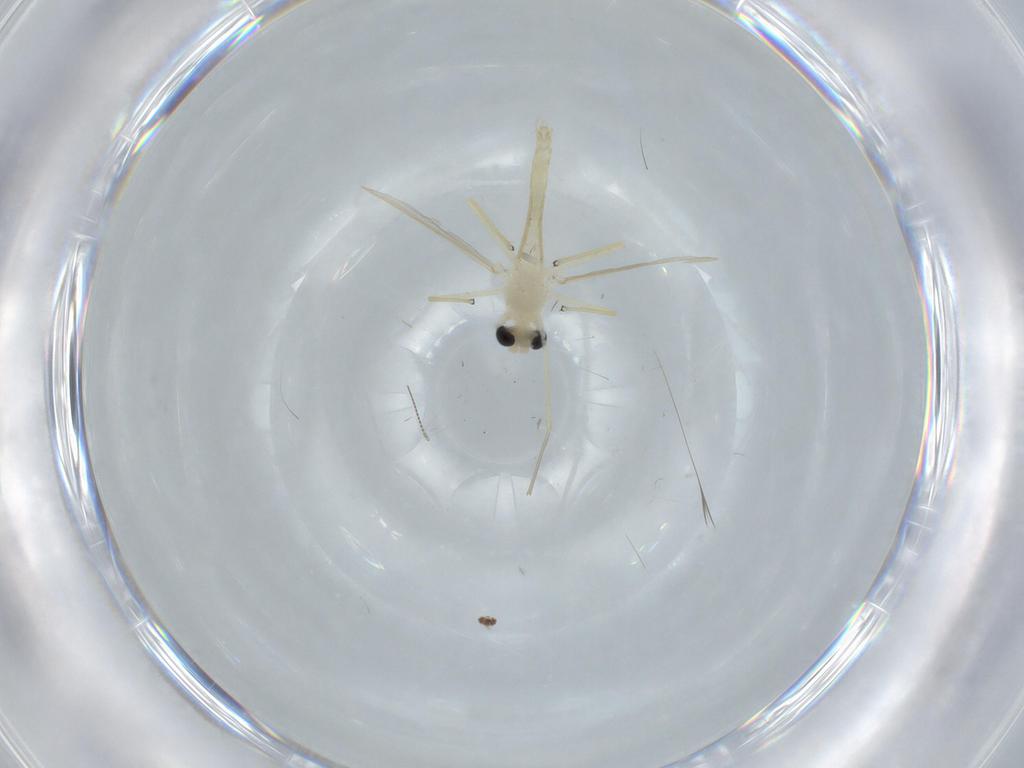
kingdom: Animalia
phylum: Arthropoda
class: Insecta
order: Diptera
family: Chironomidae
